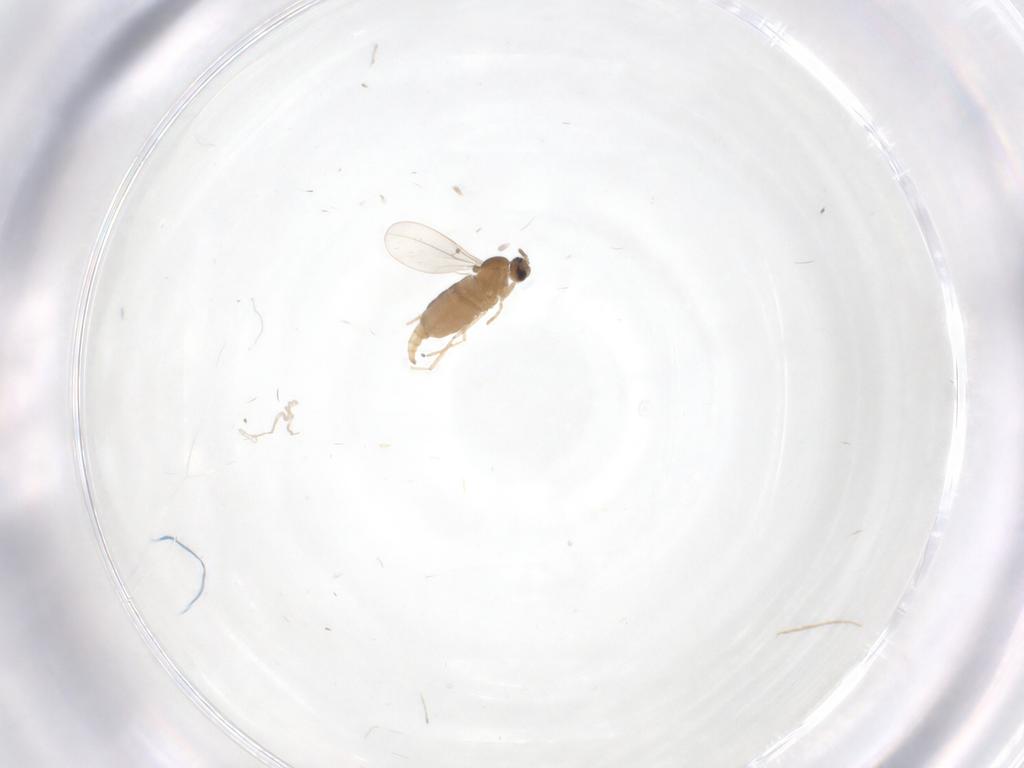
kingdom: Animalia
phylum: Arthropoda
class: Insecta
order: Diptera
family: Cecidomyiidae
